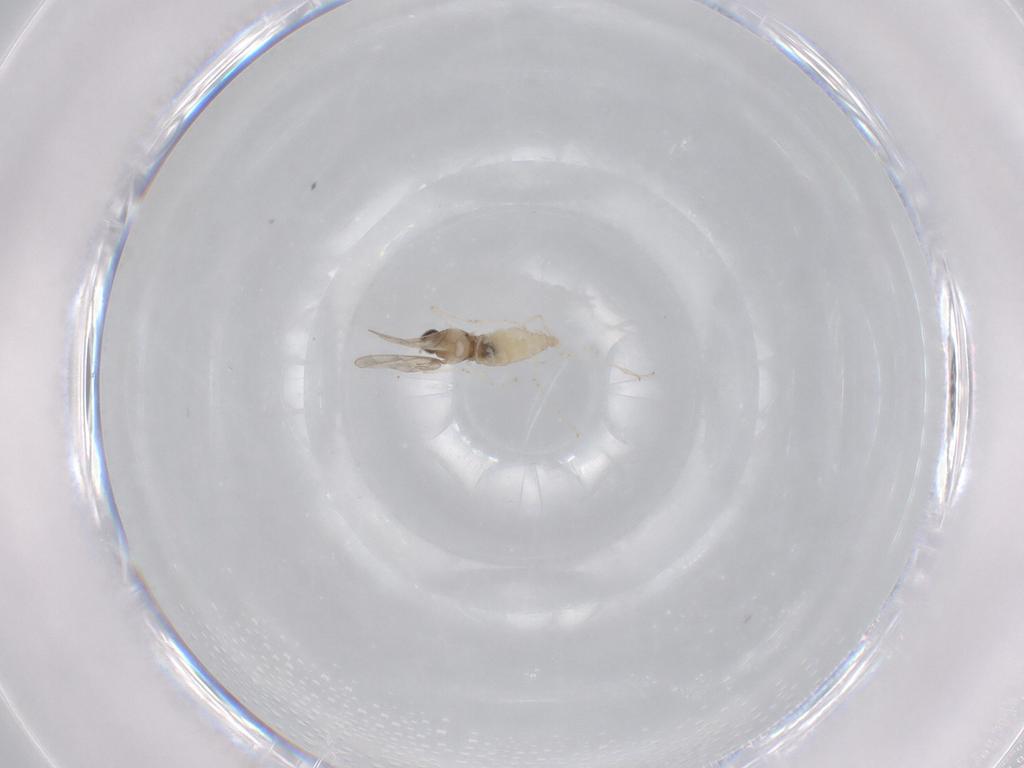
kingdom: Animalia
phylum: Arthropoda
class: Insecta
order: Diptera
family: Cecidomyiidae
